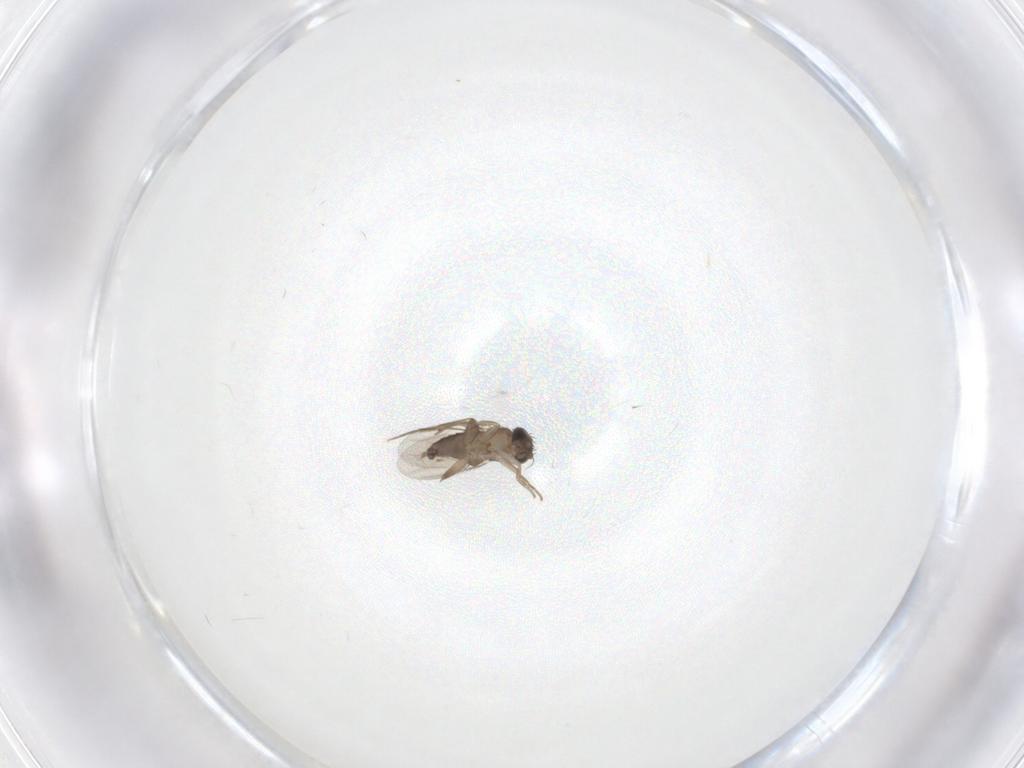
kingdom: Animalia
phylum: Arthropoda
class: Insecta
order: Diptera
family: Phoridae
